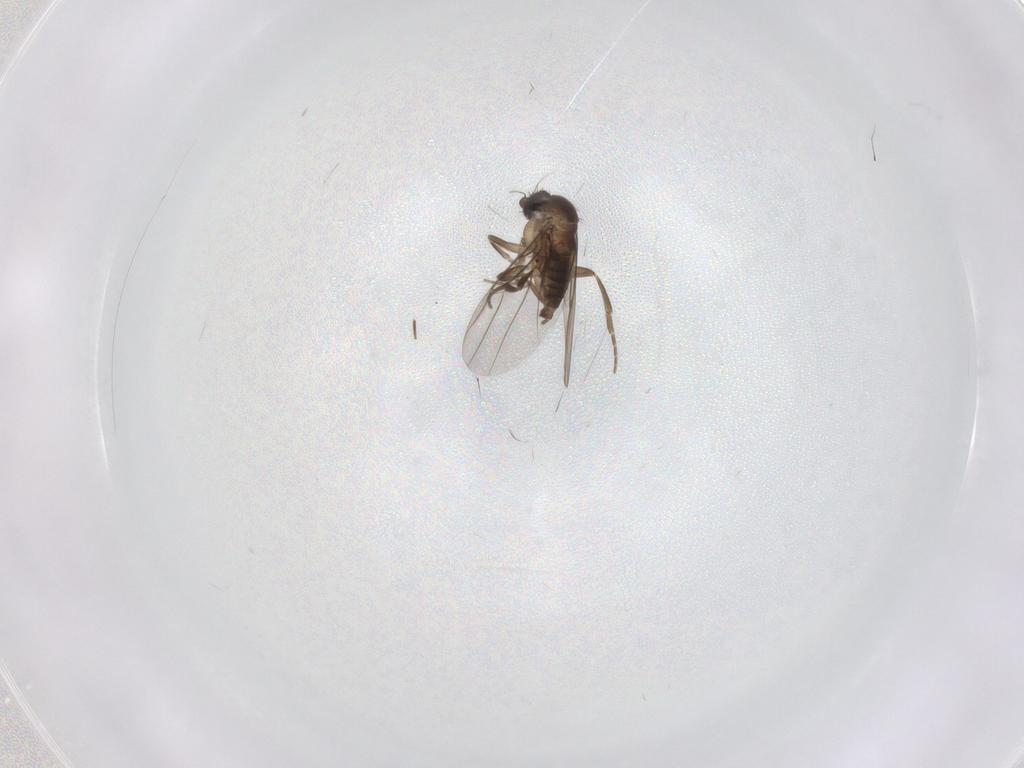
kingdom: Animalia
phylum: Arthropoda
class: Insecta
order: Diptera
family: Phoridae
